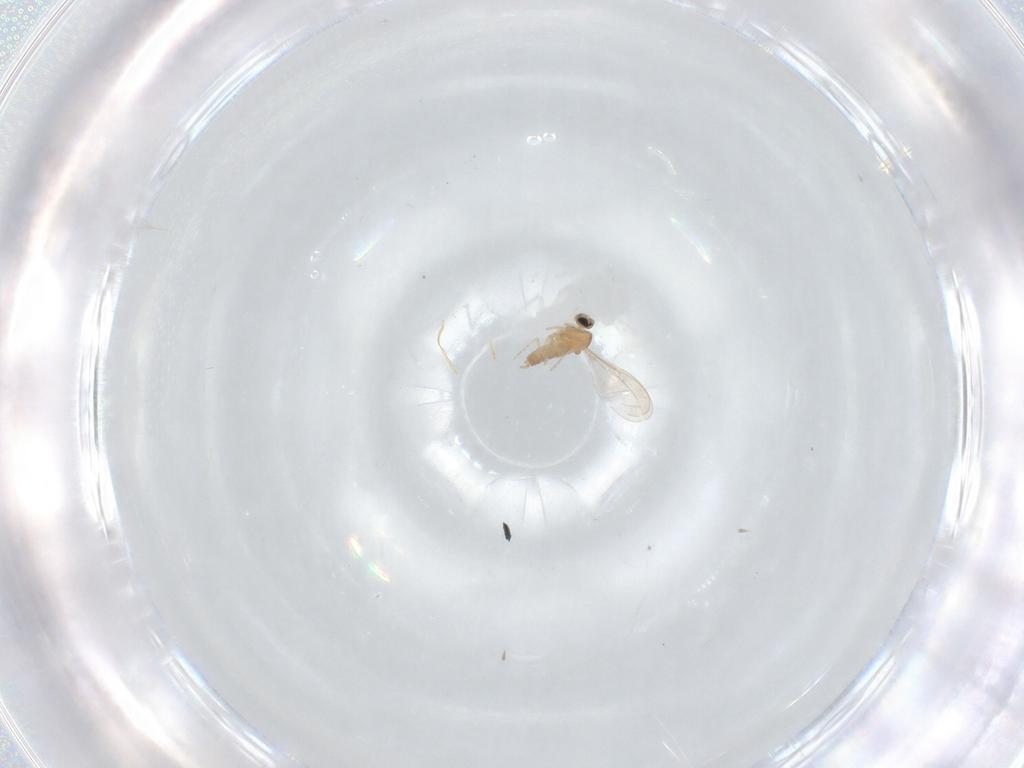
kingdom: Animalia
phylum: Arthropoda
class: Insecta
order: Diptera
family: Cecidomyiidae
